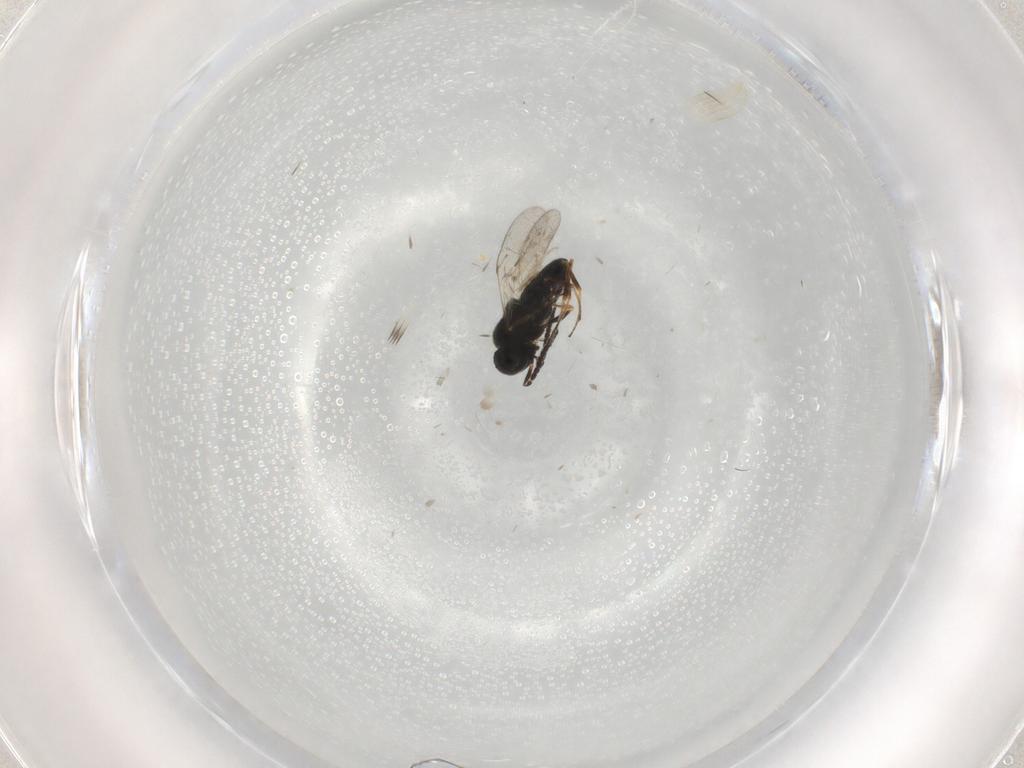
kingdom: Animalia
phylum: Arthropoda
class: Insecta
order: Hymenoptera
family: Scelionidae
